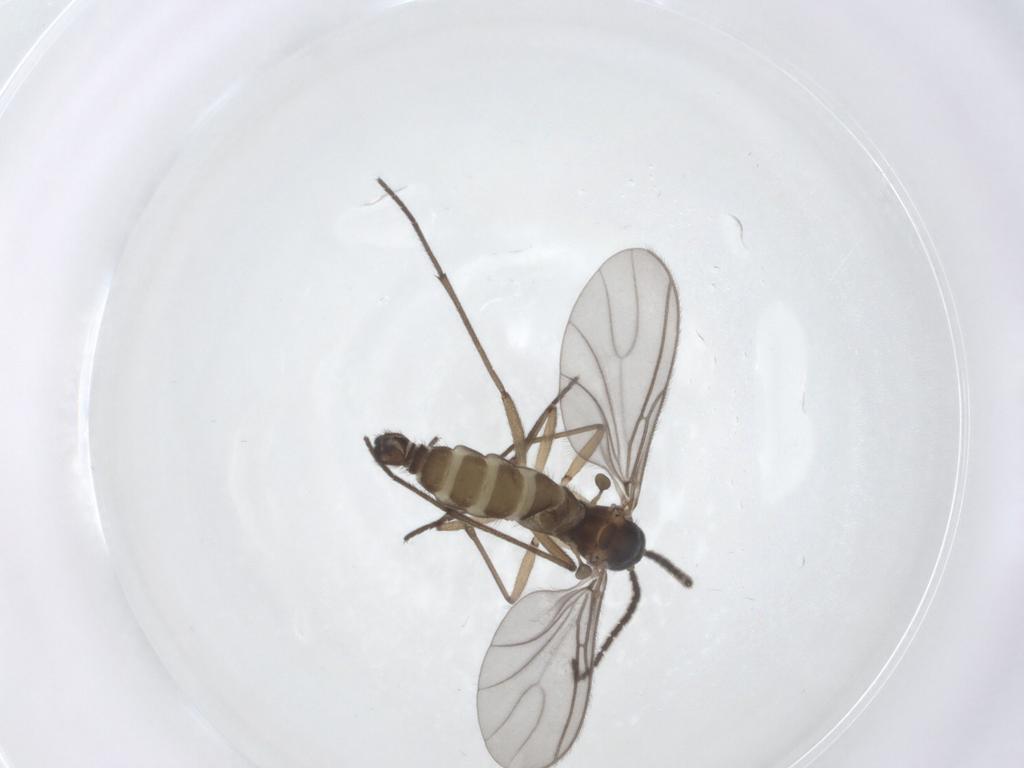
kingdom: Animalia
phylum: Arthropoda
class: Insecta
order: Diptera
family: Sciaridae
